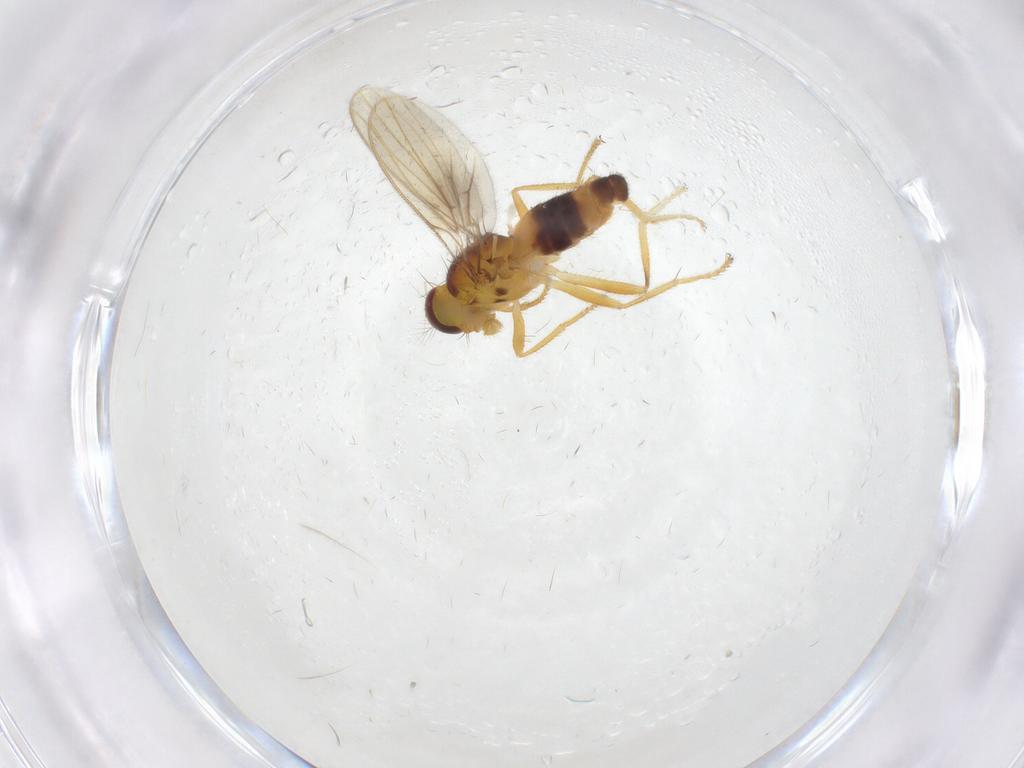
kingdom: Animalia
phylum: Arthropoda
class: Insecta
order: Diptera
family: Periscelididae
